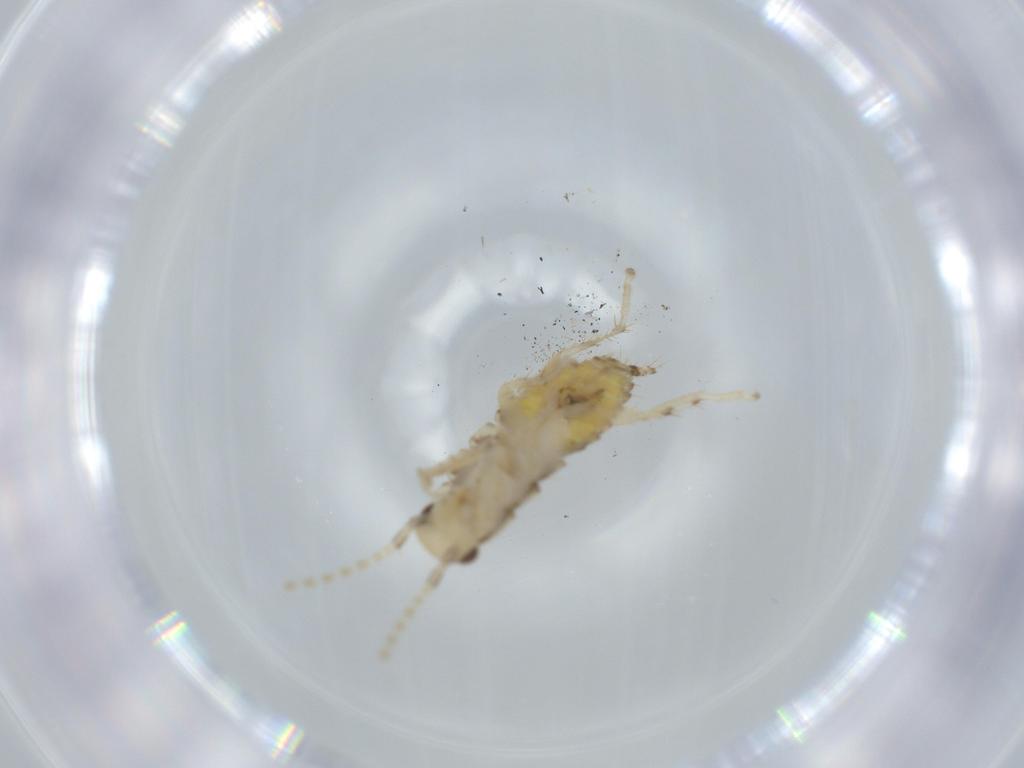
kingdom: Animalia
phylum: Arthropoda
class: Insecta
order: Blattodea
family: Ectobiidae
